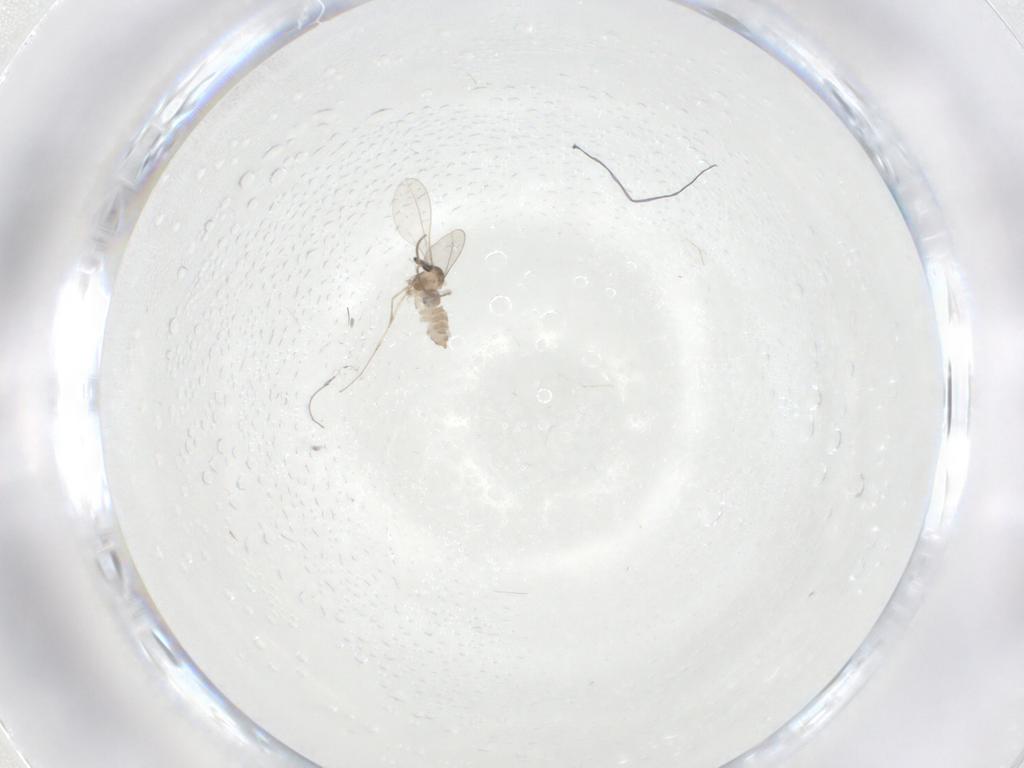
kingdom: Animalia
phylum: Arthropoda
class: Insecta
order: Diptera
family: Cecidomyiidae
